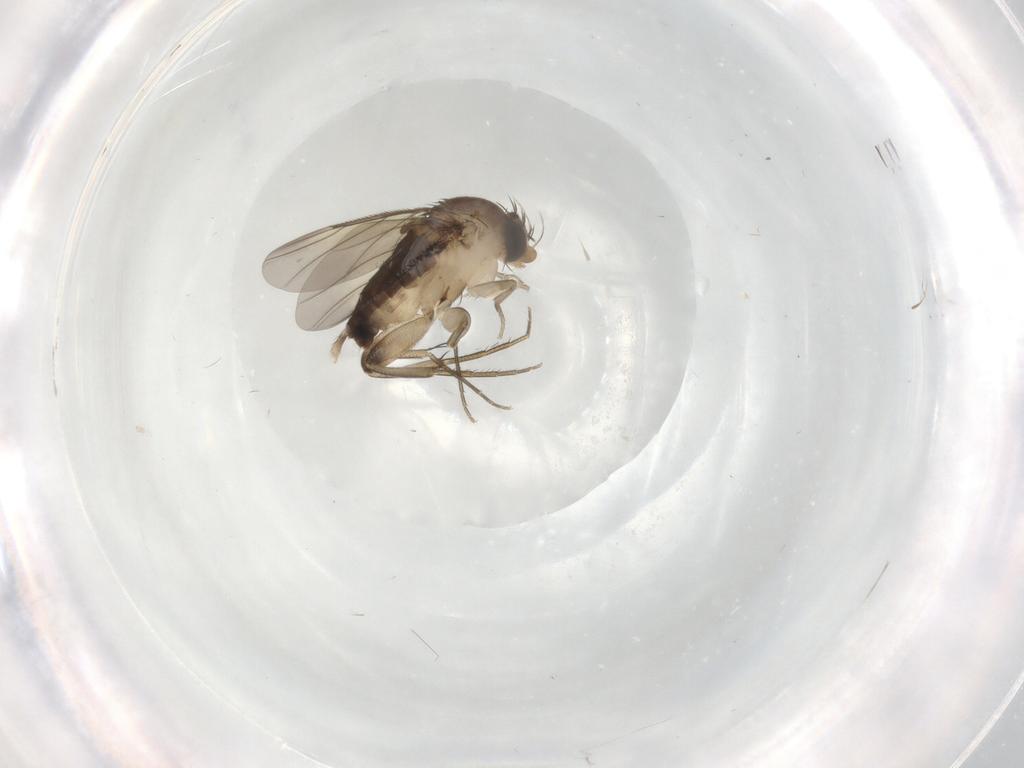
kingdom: Animalia
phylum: Arthropoda
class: Insecta
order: Diptera
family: Phoridae
